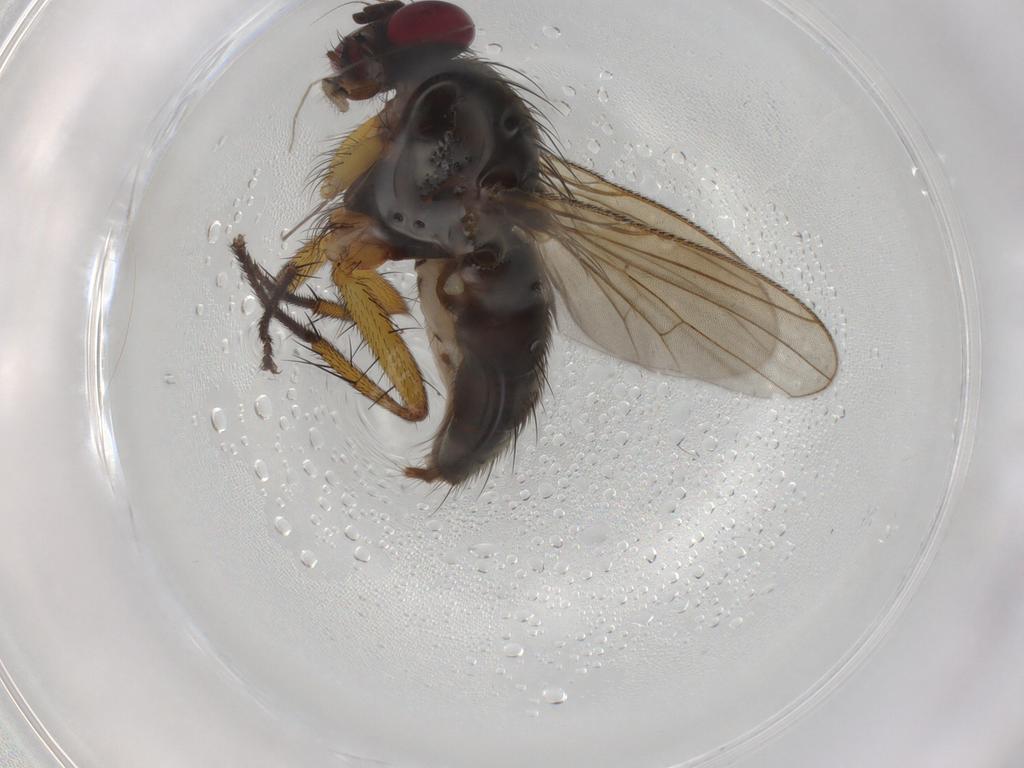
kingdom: Animalia
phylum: Arthropoda
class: Insecta
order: Diptera
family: Muscidae
